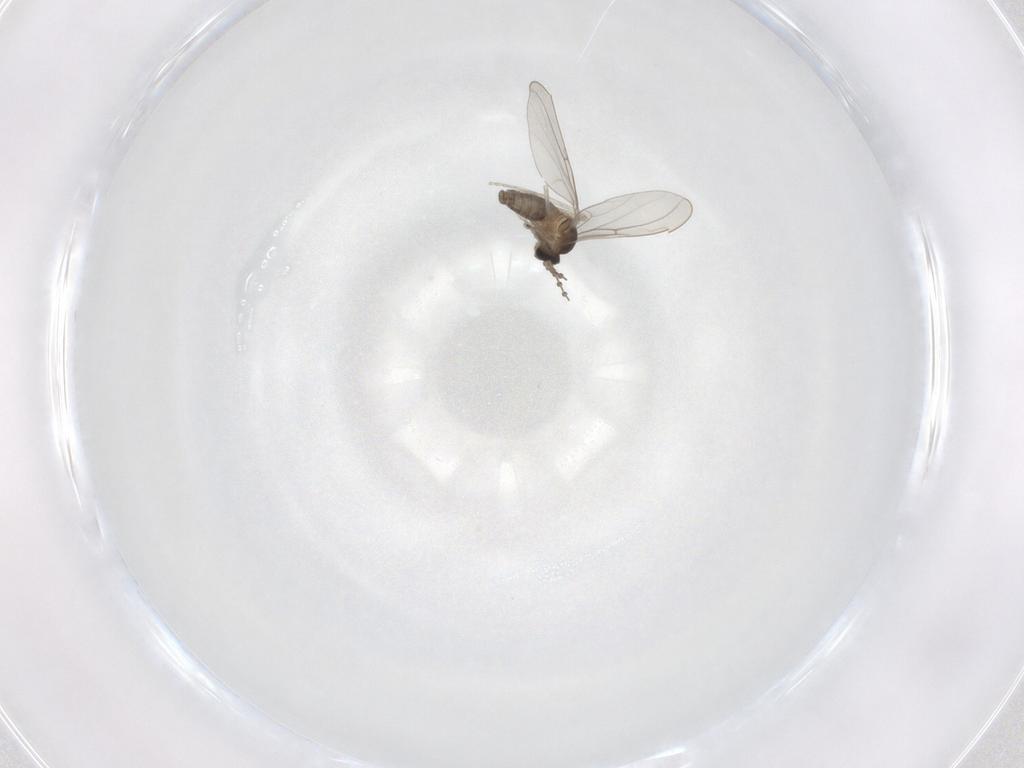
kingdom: Animalia
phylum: Arthropoda
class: Insecta
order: Diptera
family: Cecidomyiidae
